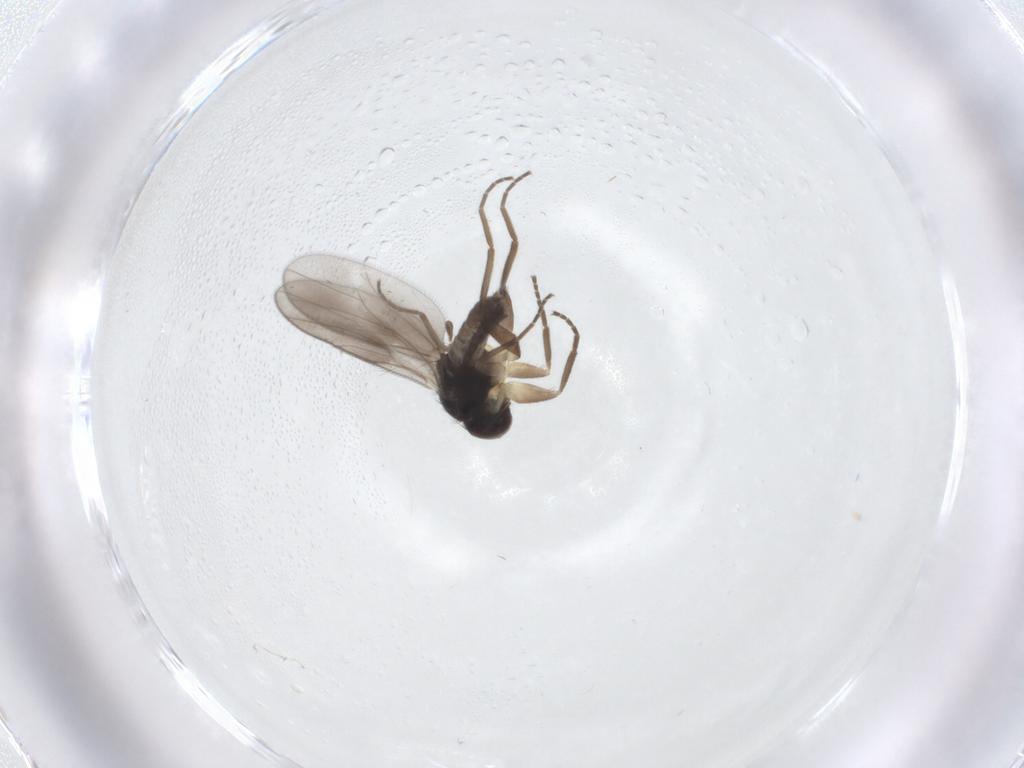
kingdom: Animalia
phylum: Arthropoda
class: Insecta
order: Diptera
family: Hybotidae
